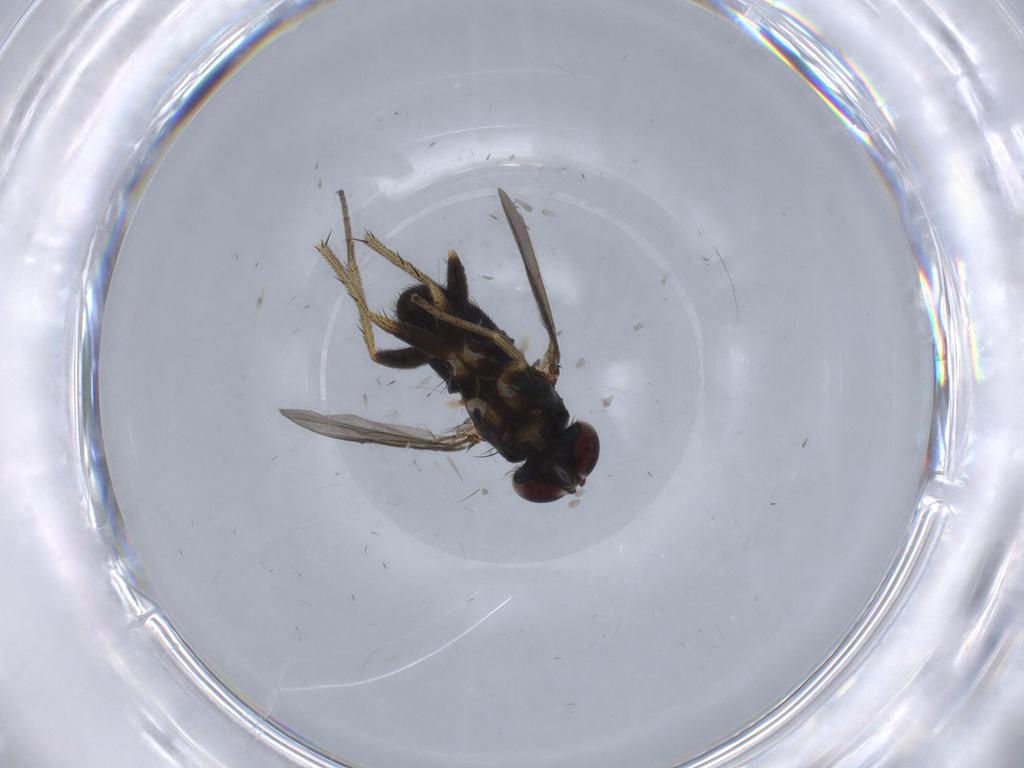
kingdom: Animalia
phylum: Arthropoda
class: Insecta
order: Diptera
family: Dolichopodidae
